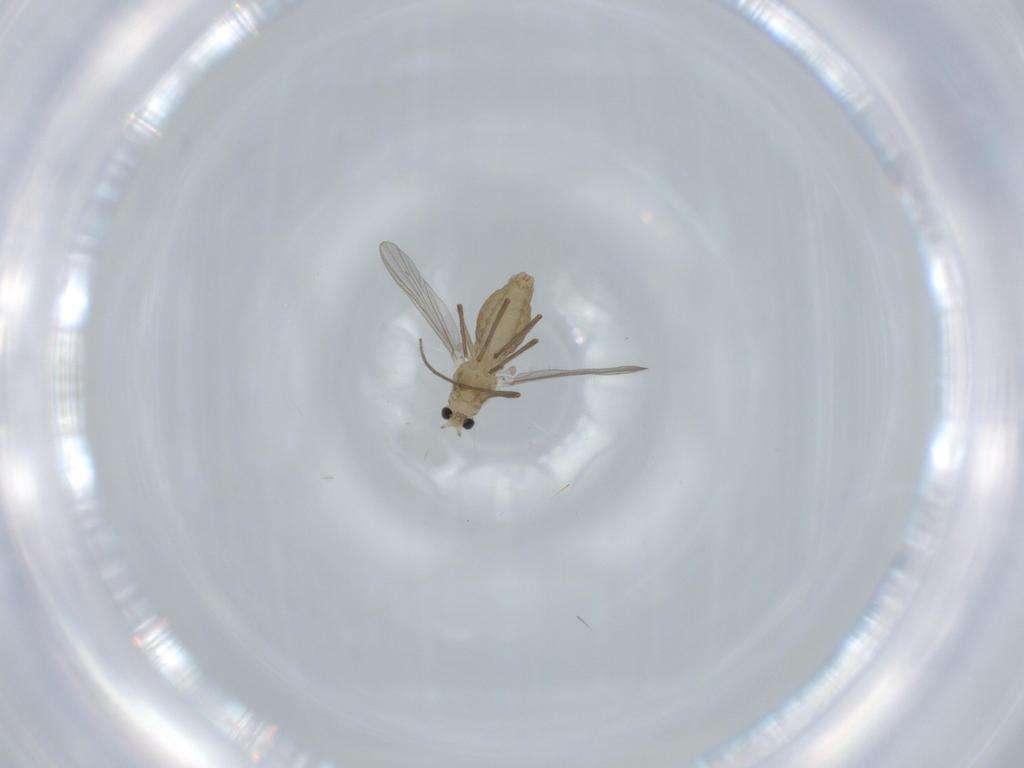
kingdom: Animalia
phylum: Arthropoda
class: Insecta
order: Diptera
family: Chironomidae
